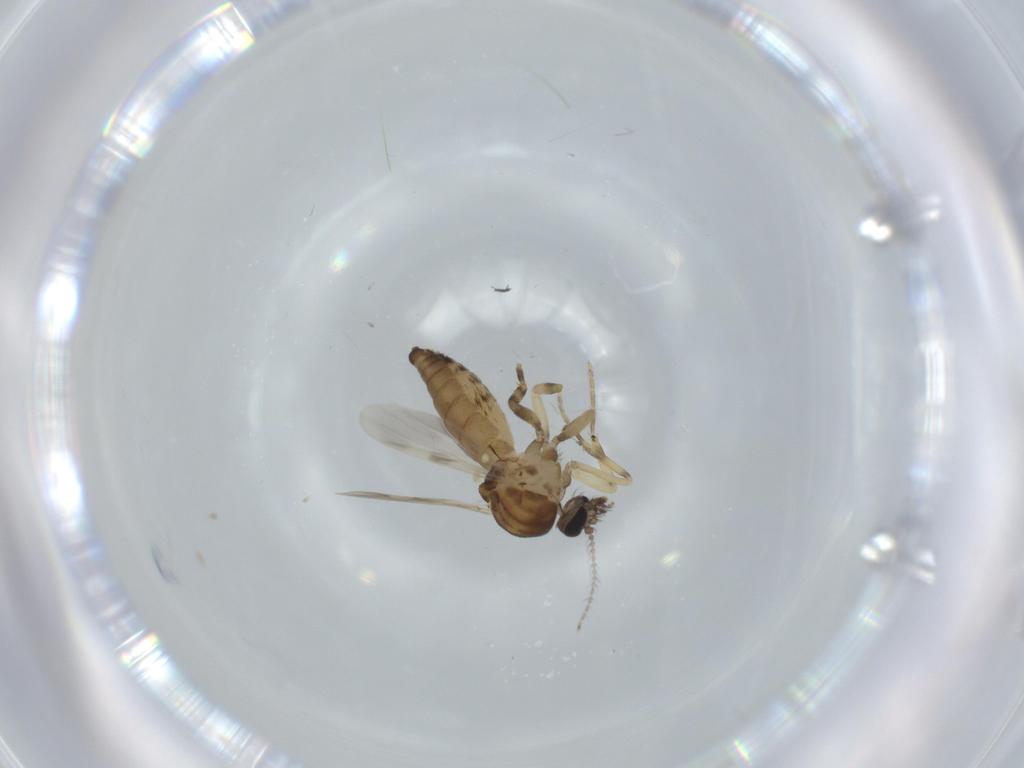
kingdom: Animalia
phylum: Arthropoda
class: Insecta
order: Diptera
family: Ceratopogonidae
